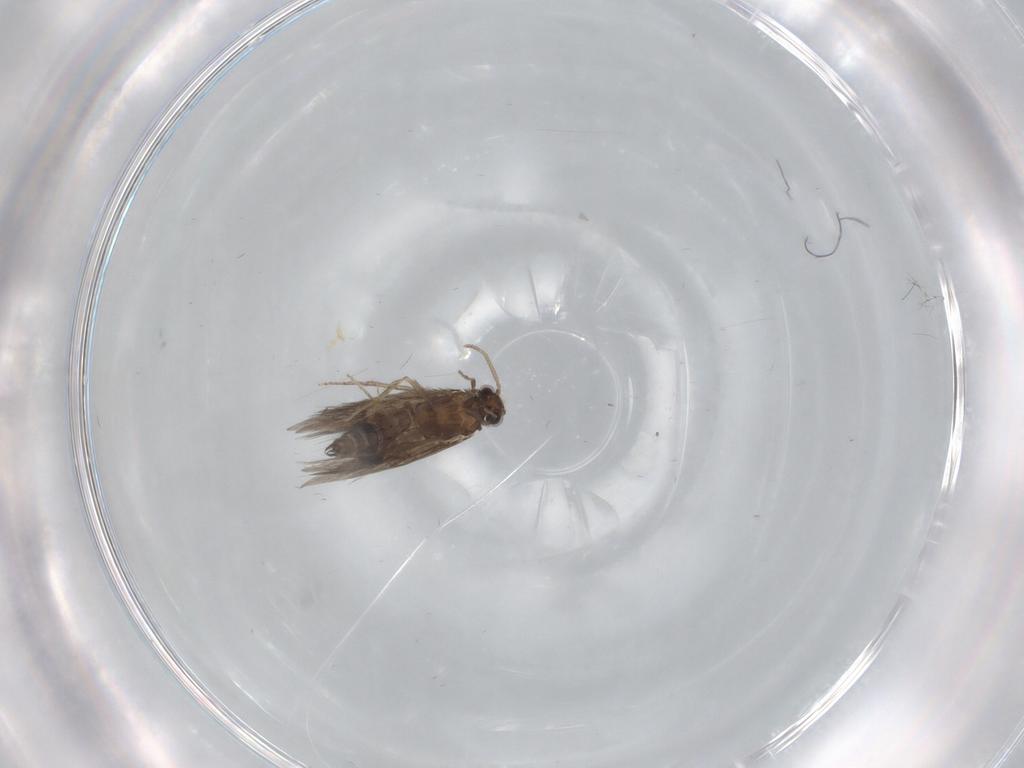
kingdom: Animalia
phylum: Arthropoda
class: Insecta
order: Trichoptera
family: Hydroptilidae
